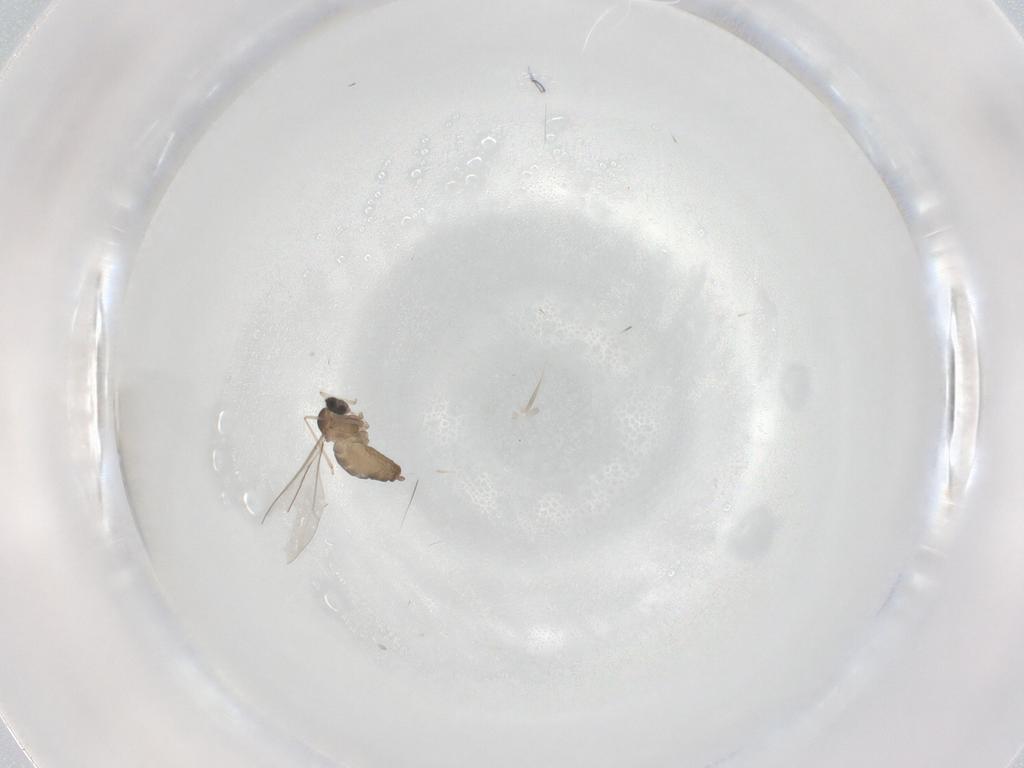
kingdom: Animalia
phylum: Arthropoda
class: Insecta
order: Diptera
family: Cecidomyiidae
